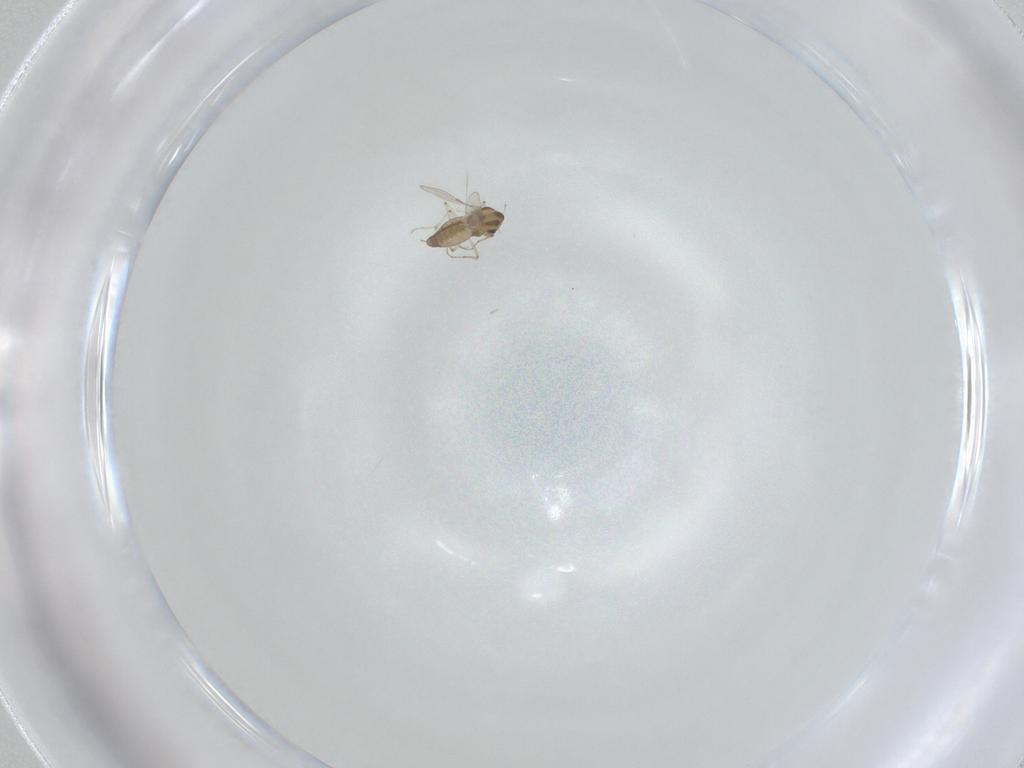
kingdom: Animalia
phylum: Arthropoda
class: Insecta
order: Diptera
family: Chironomidae
